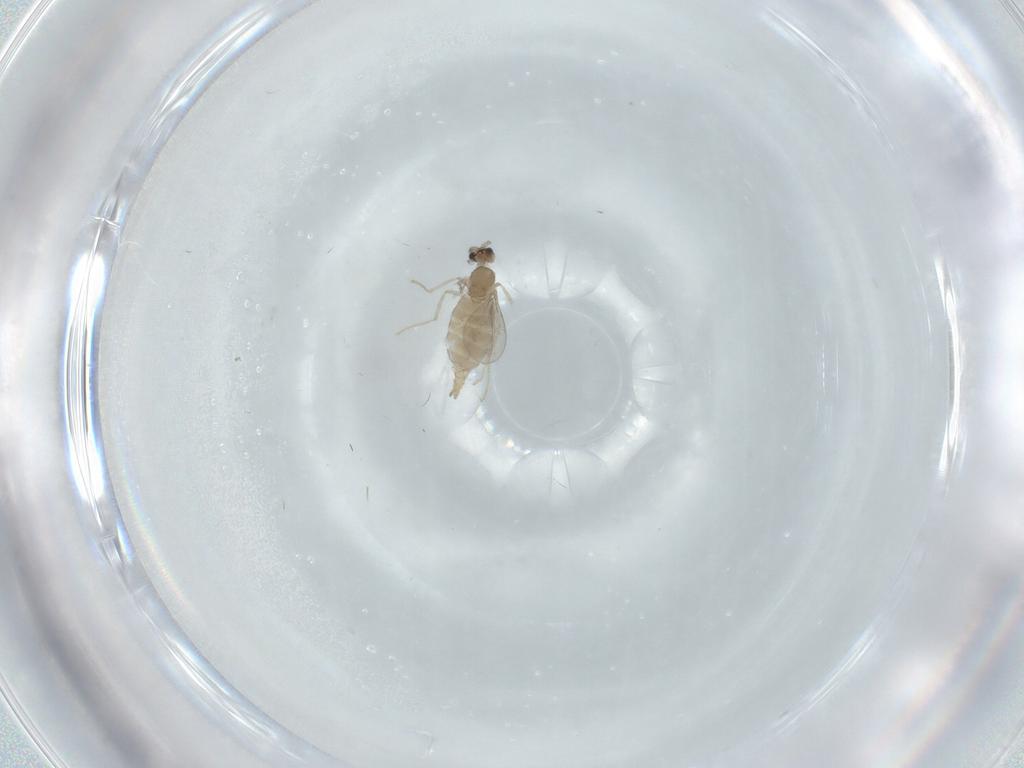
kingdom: Animalia
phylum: Arthropoda
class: Insecta
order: Diptera
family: Cecidomyiidae
